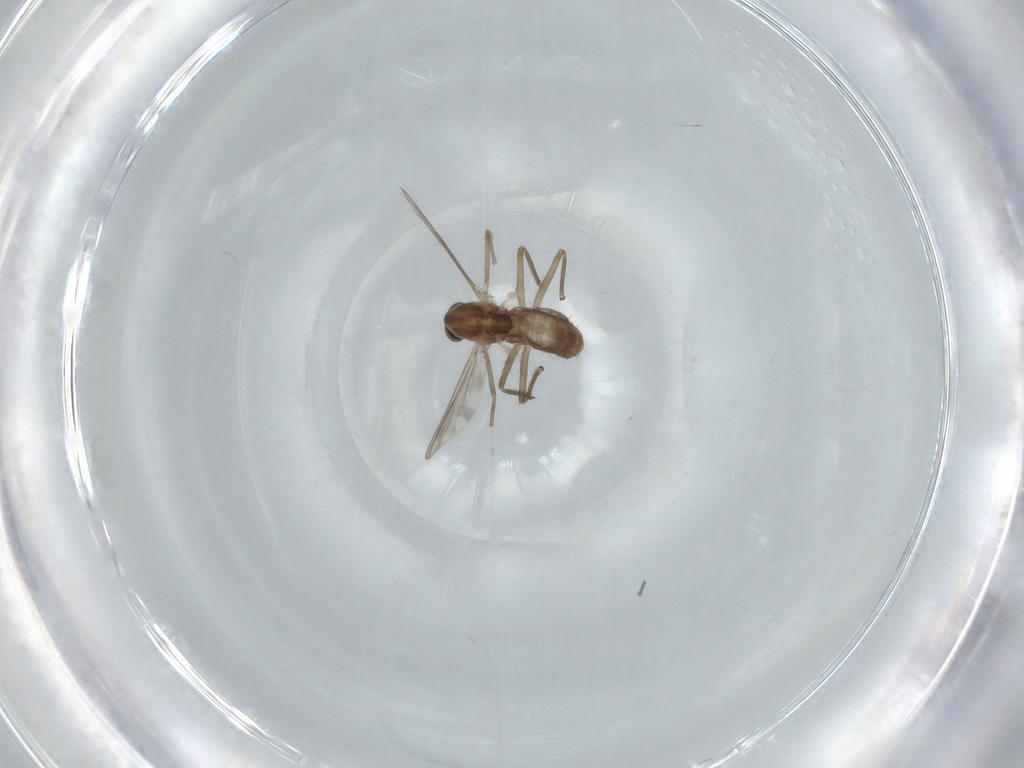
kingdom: Animalia
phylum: Arthropoda
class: Insecta
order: Diptera
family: Chironomidae
